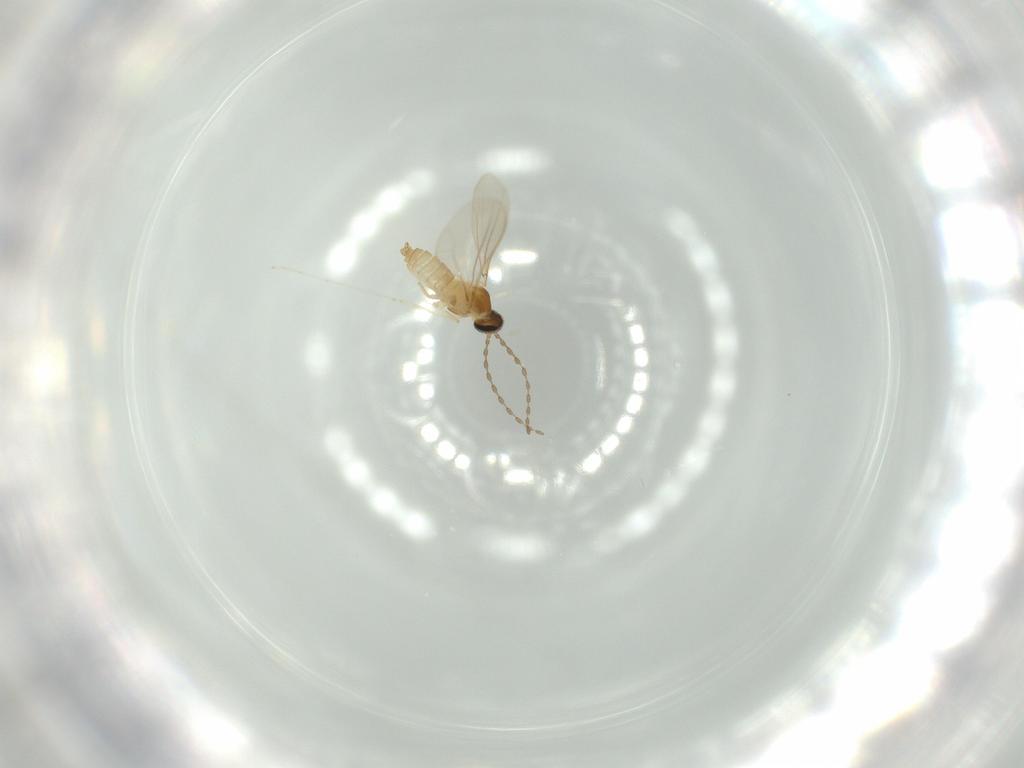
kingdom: Animalia
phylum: Arthropoda
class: Insecta
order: Diptera
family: Cecidomyiidae
